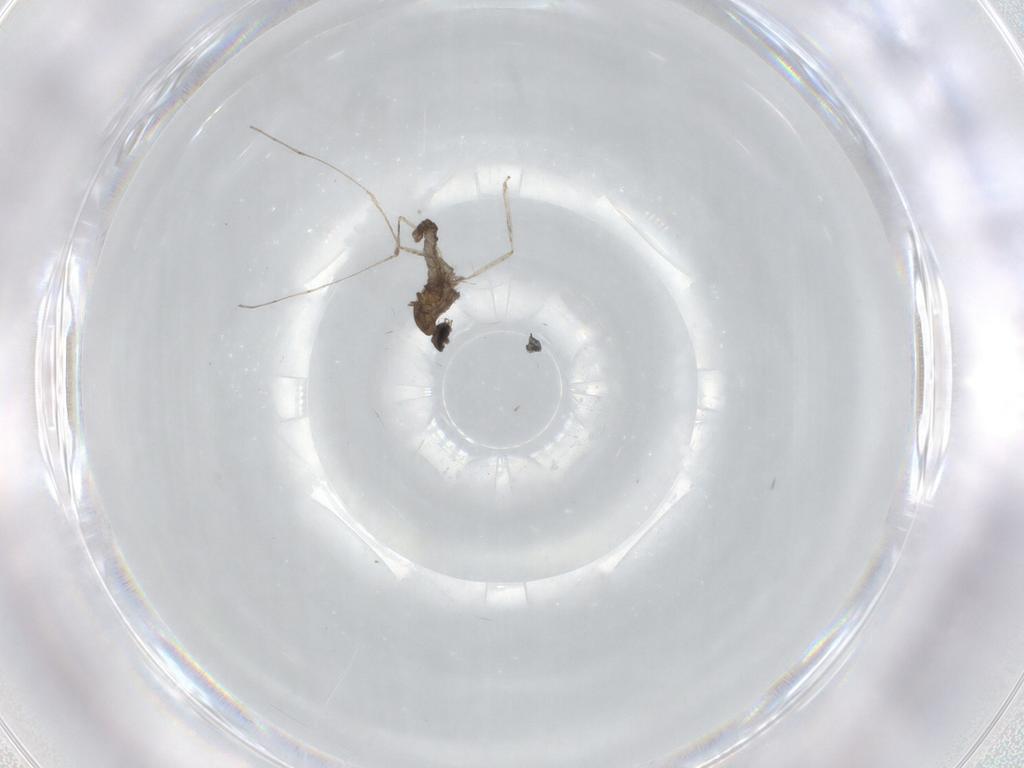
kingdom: Animalia
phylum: Arthropoda
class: Insecta
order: Diptera
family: Cecidomyiidae
